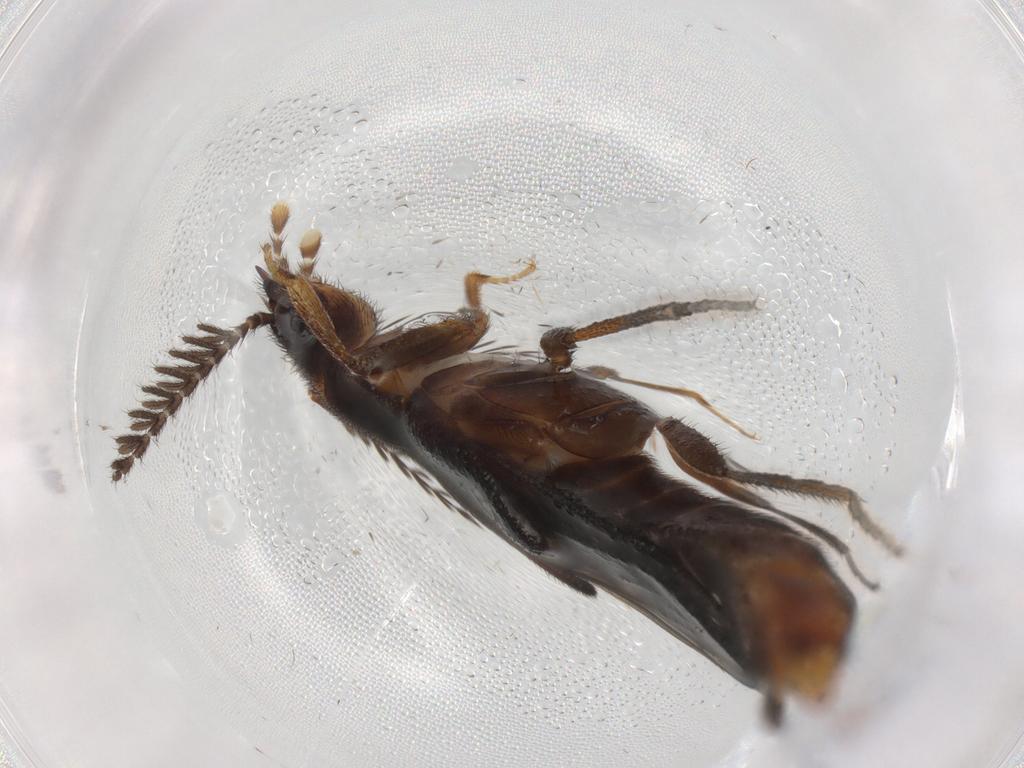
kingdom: Animalia
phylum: Arthropoda
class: Insecta
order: Coleoptera
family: Phengodidae
